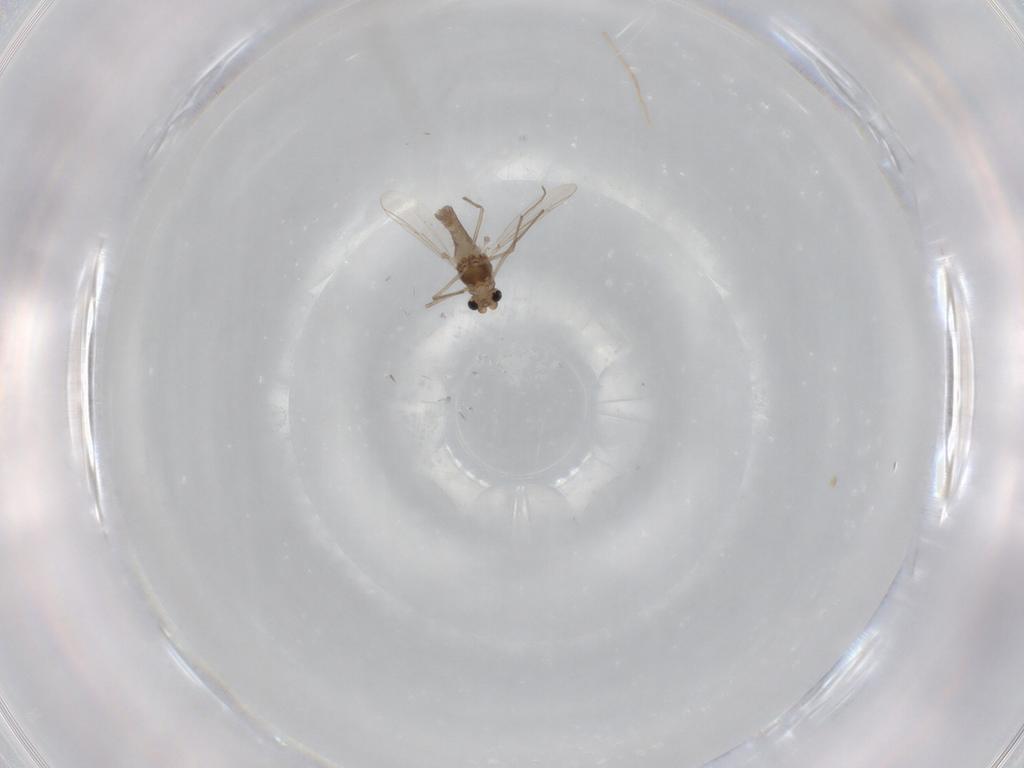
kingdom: Animalia
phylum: Arthropoda
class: Insecta
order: Diptera
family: Chironomidae
